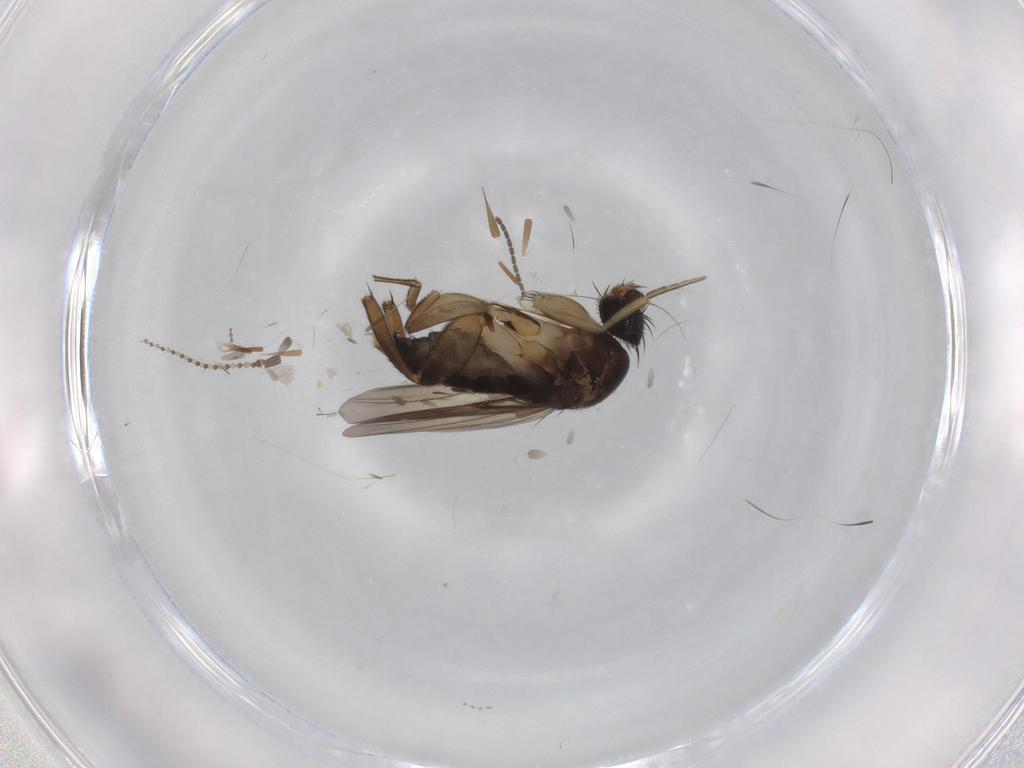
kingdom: Animalia
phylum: Arthropoda
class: Insecta
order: Diptera
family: Phoridae
